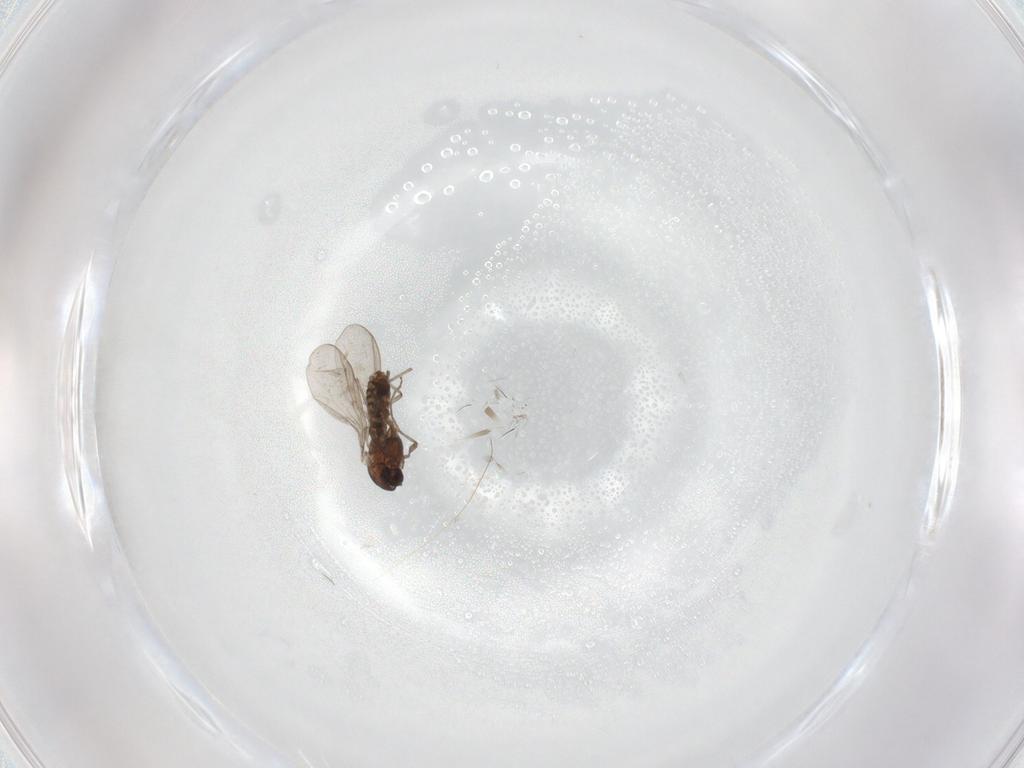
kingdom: Animalia
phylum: Arthropoda
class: Insecta
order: Diptera
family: Chironomidae
